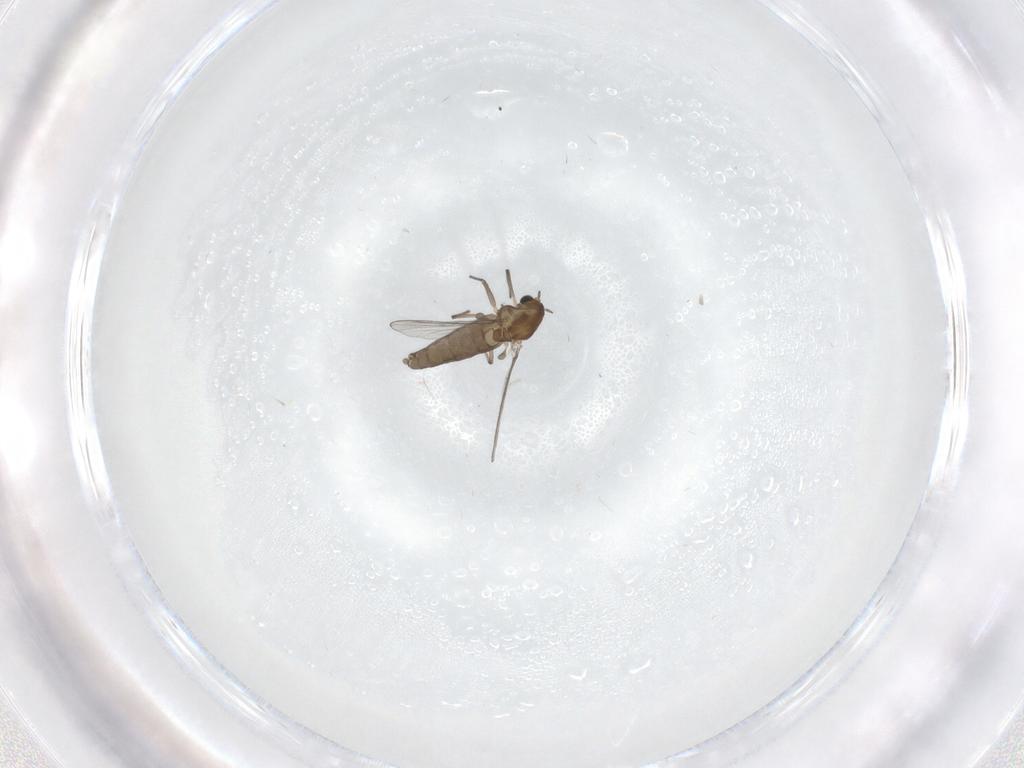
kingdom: Animalia
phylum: Arthropoda
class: Insecta
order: Diptera
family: Chironomidae
